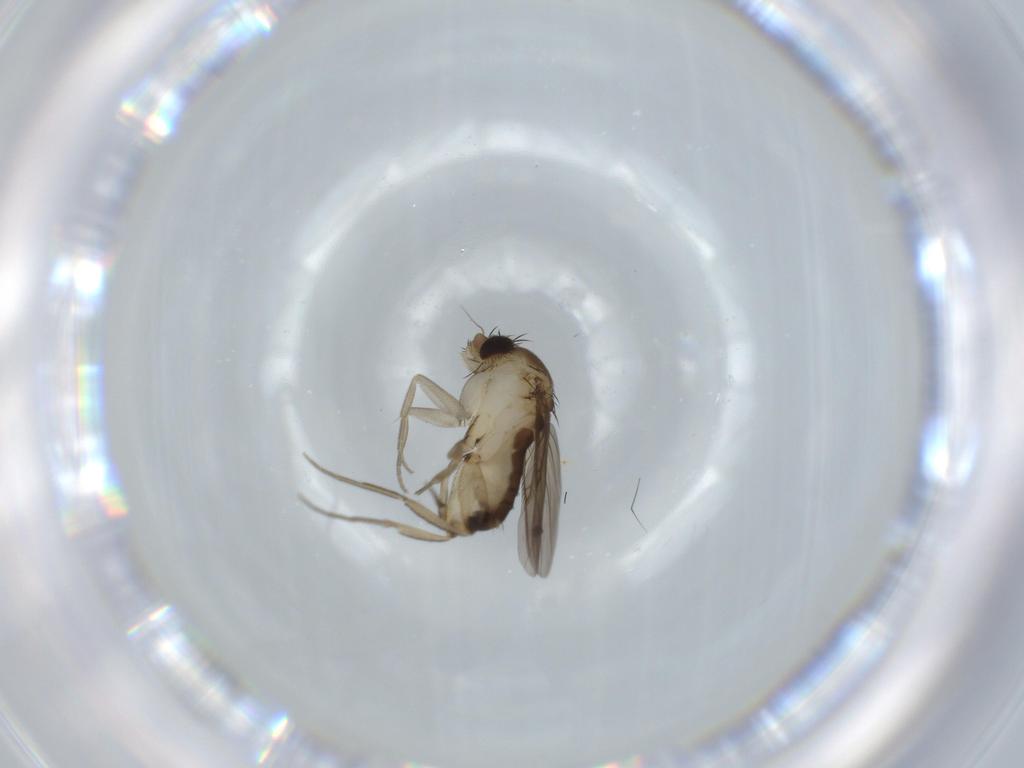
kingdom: Animalia
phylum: Arthropoda
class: Insecta
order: Diptera
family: Phoridae
